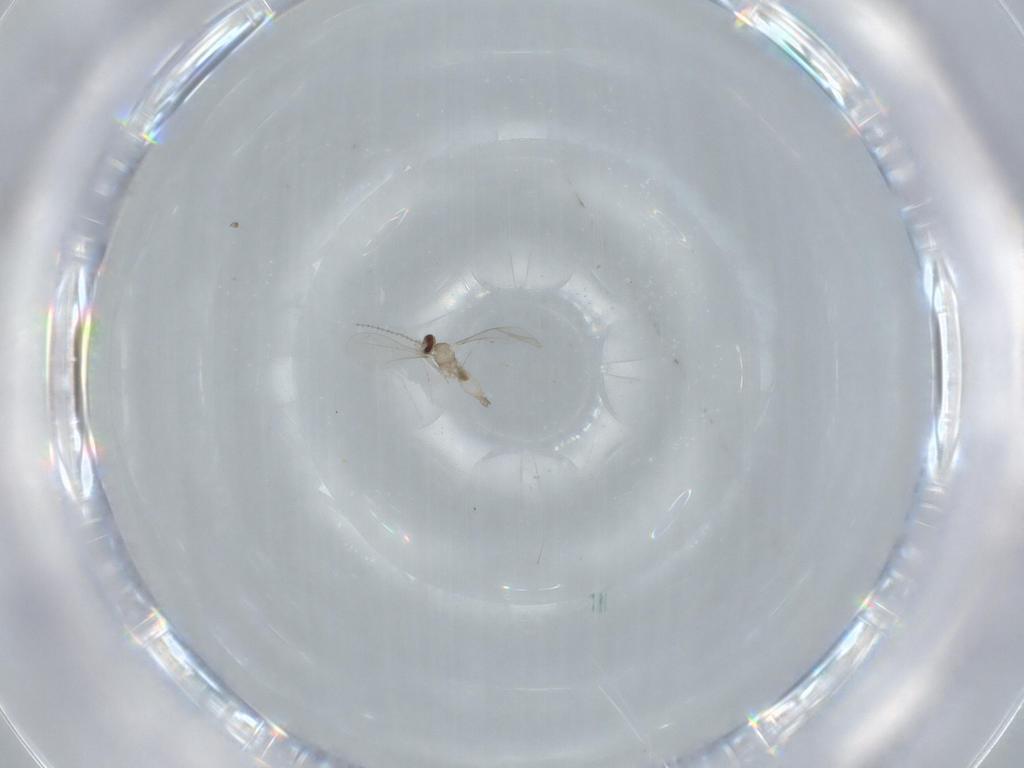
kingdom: Animalia
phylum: Arthropoda
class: Insecta
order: Diptera
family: Cecidomyiidae
